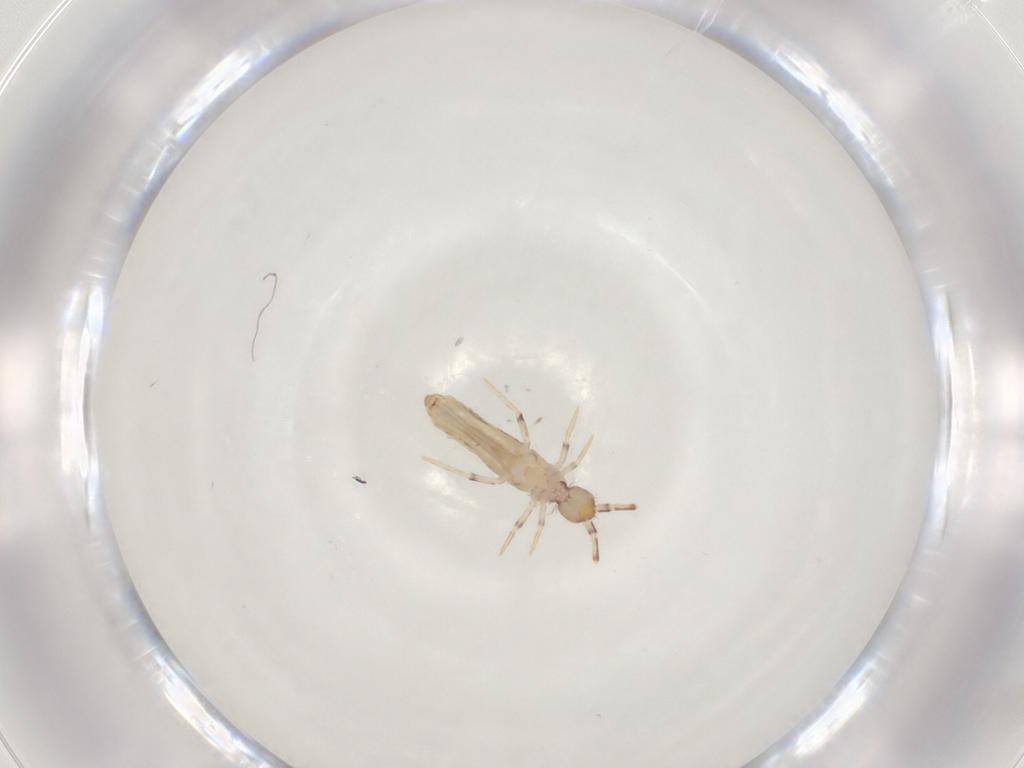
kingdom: Animalia
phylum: Arthropoda
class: Collembola
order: Entomobryomorpha
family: Entomobryidae
